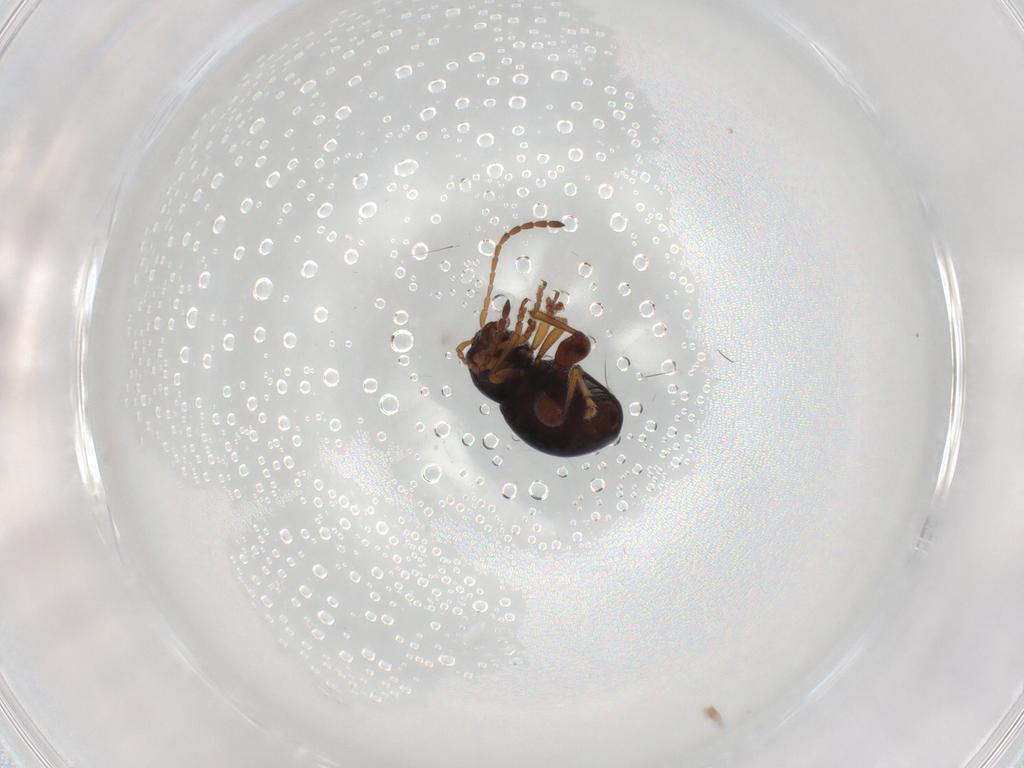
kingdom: Animalia
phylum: Arthropoda
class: Insecta
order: Coleoptera
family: Chrysomelidae
